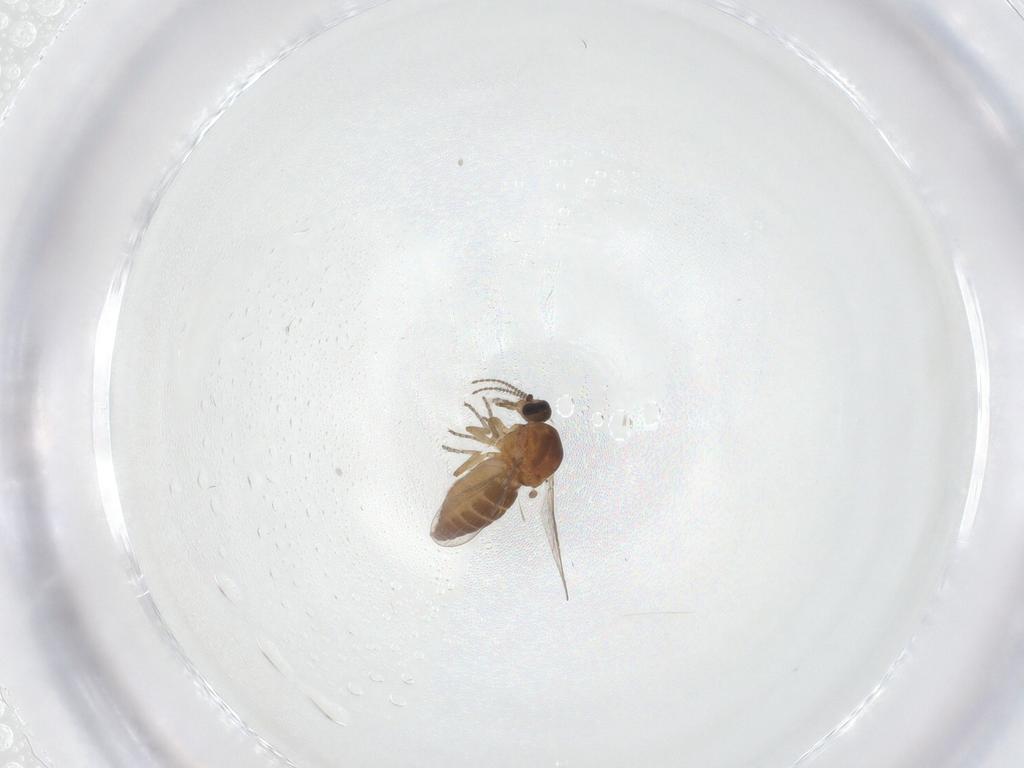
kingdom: Animalia
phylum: Arthropoda
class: Insecta
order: Diptera
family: Ceratopogonidae
